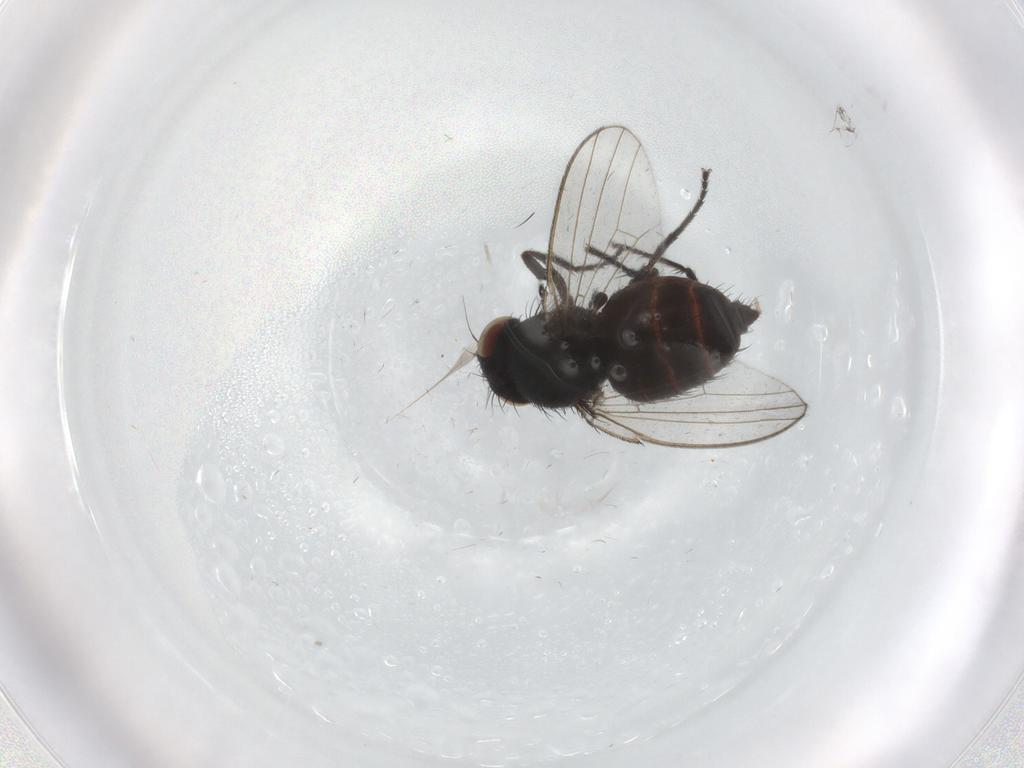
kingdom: Animalia
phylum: Arthropoda
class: Insecta
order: Diptera
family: Milichiidae
